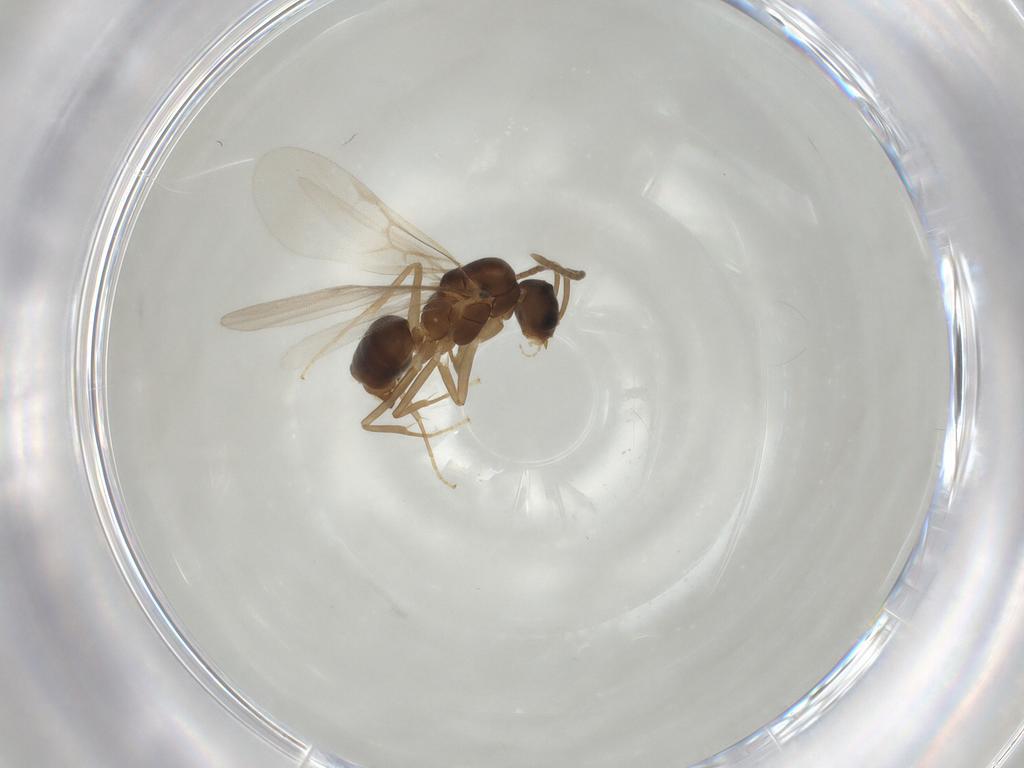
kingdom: Animalia
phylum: Arthropoda
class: Insecta
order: Hymenoptera
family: Formicidae
